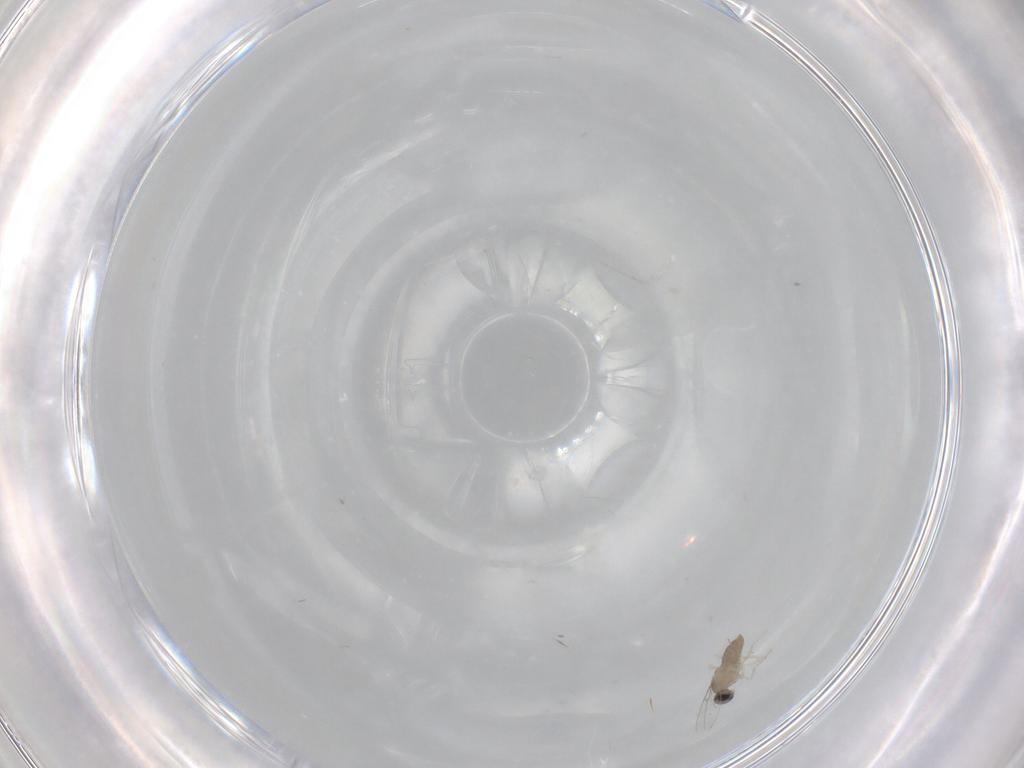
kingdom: Animalia
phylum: Arthropoda
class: Insecta
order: Diptera
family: Cecidomyiidae
